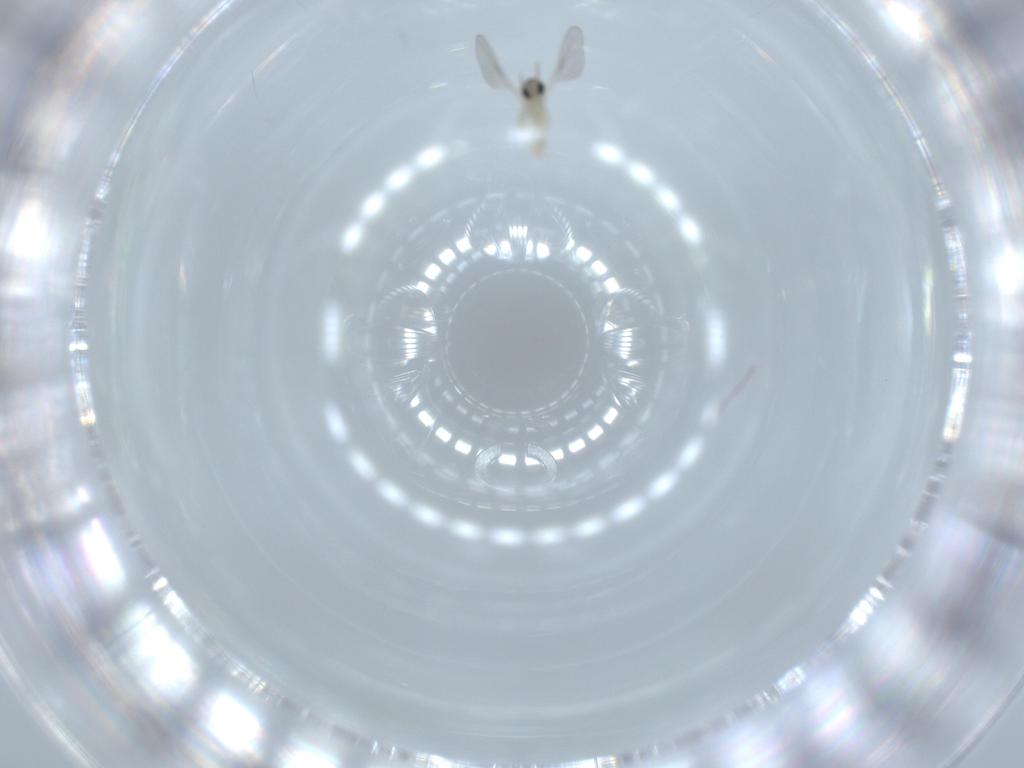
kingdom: Animalia
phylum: Arthropoda
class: Insecta
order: Diptera
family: Cecidomyiidae
